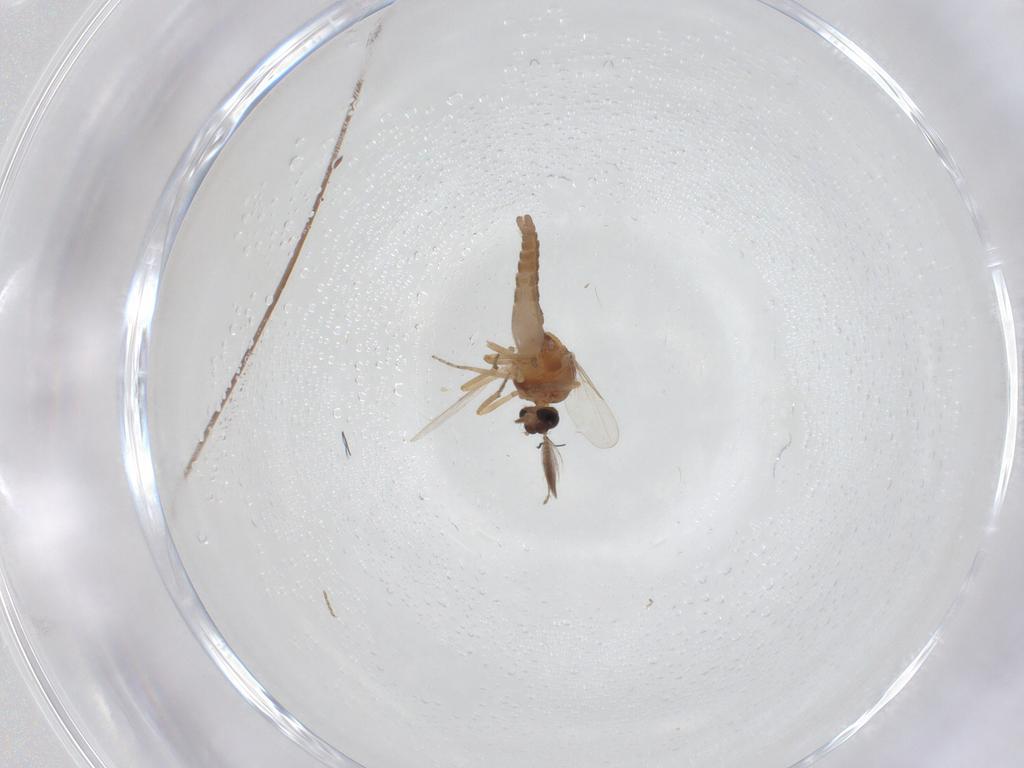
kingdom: Animalia
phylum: Arthropoda
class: Insecta
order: Diptera
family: Ceratopogonidae
